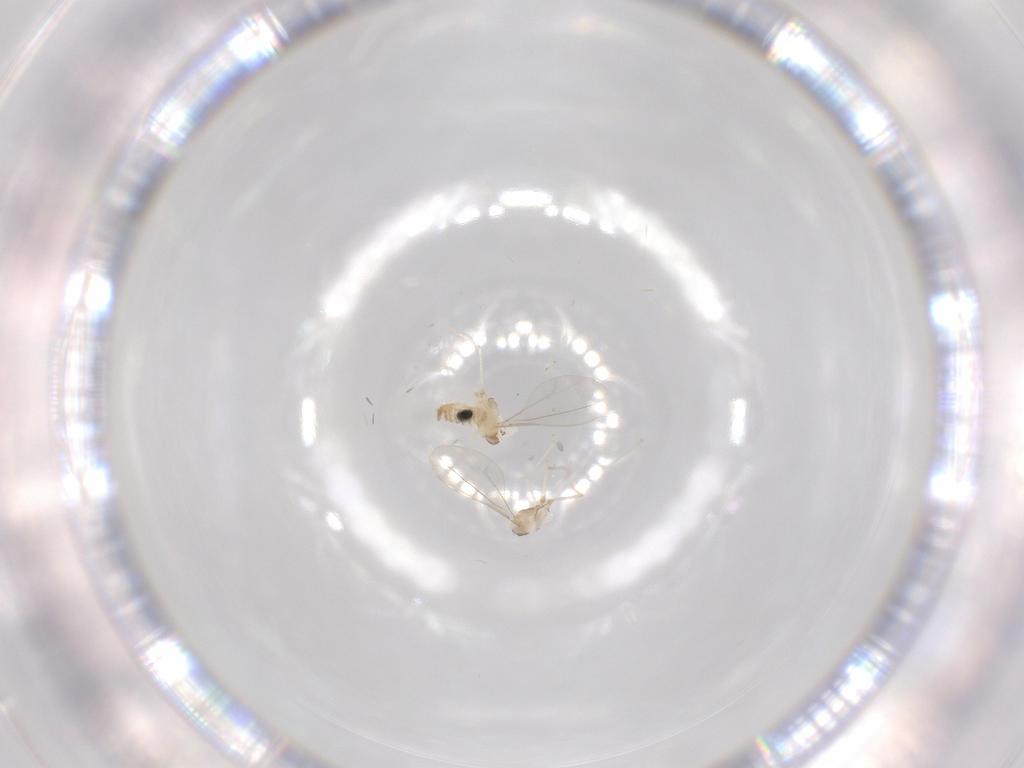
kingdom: Animalia
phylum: Arthropoda
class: Insecta
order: Diptera
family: Cecidomyiidae
